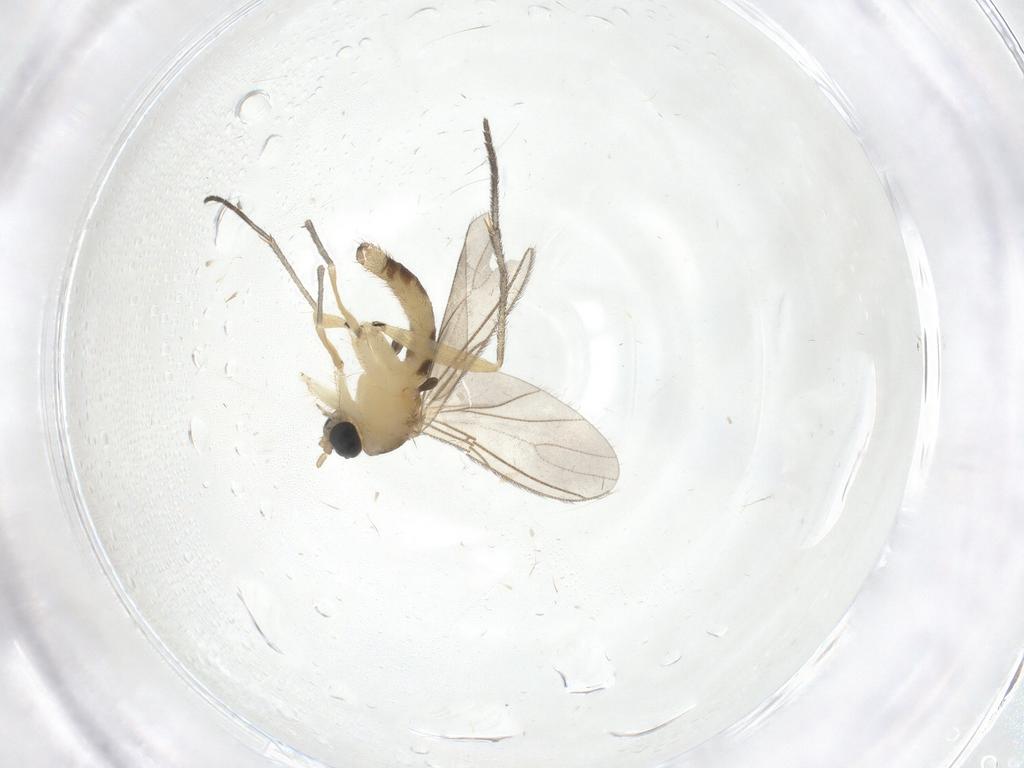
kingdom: Animalia
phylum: Arthropoda
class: Insecta
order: Diptera
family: Sciaridae
